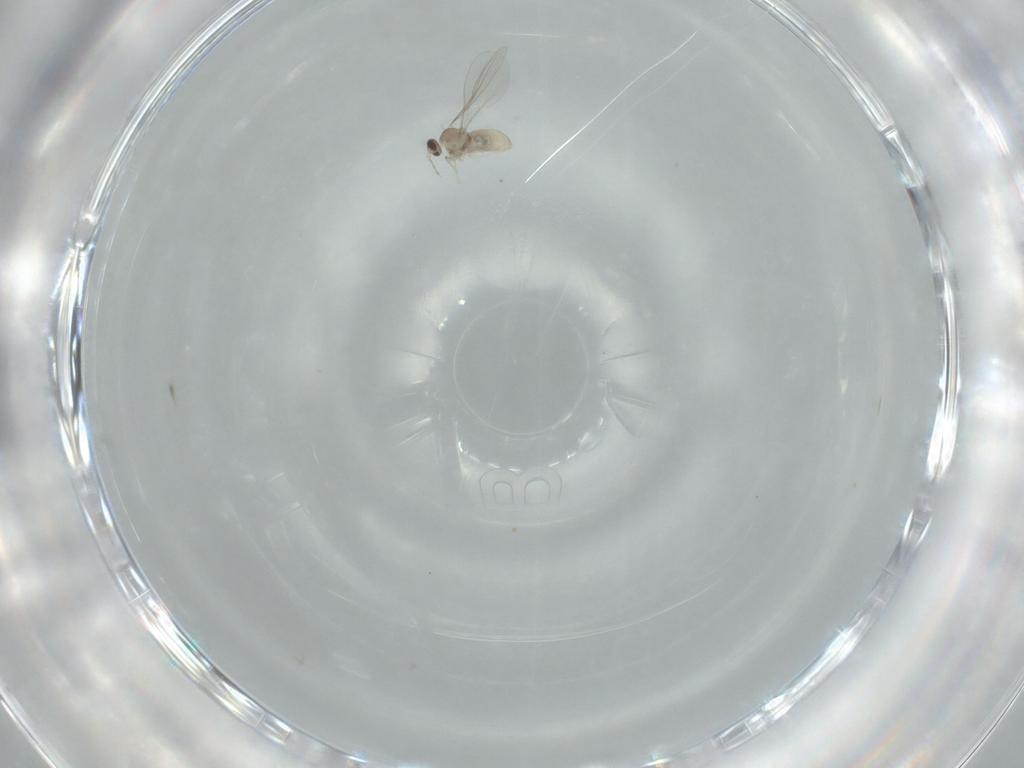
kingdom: Animalia
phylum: Arthropoda
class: Insecta
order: Diptera
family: Cecidomyiidae
